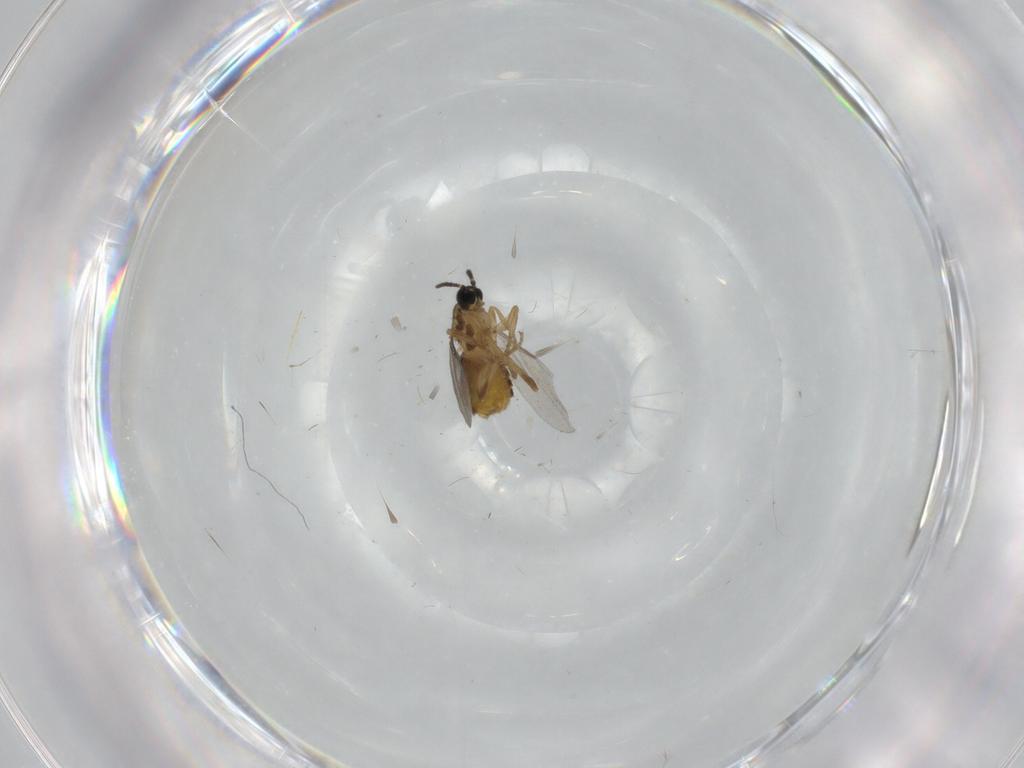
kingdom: Animalia
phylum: Arthropoda
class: Insecta
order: Diptera
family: Scatopsidae
